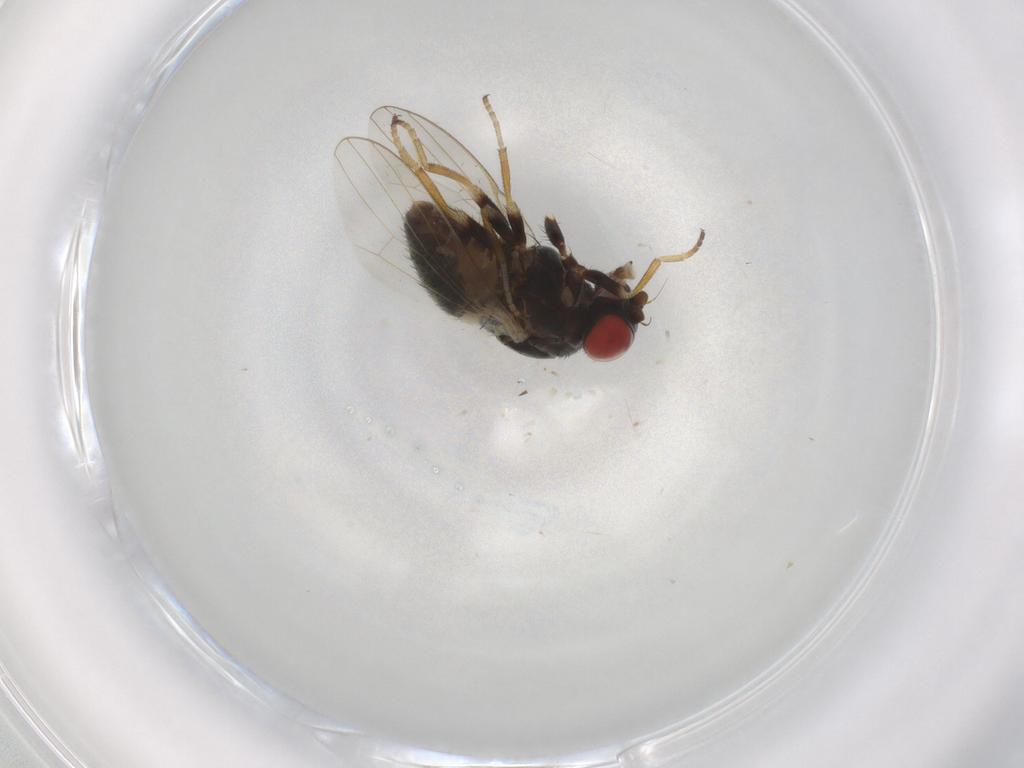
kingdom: Animalia
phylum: Arthropoda
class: Insecta
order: Diptera
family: Chamaemyiidae
